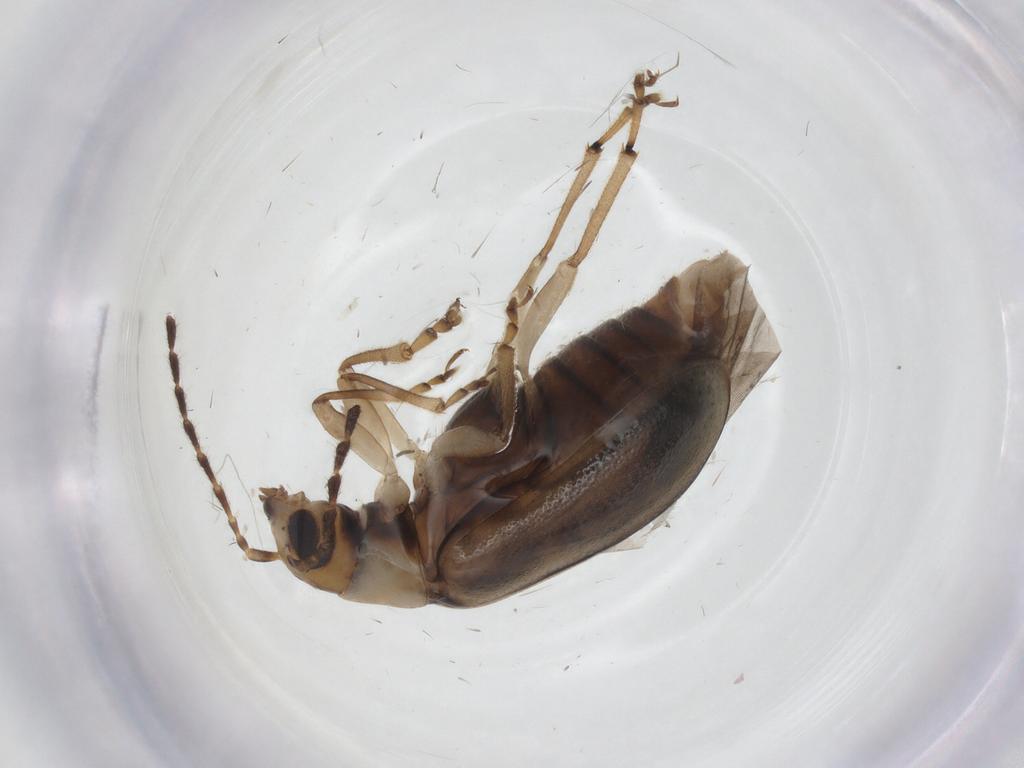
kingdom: Animalia
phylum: Arthropoda
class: Insecta
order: Coleoptera
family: Chrysomelidae
